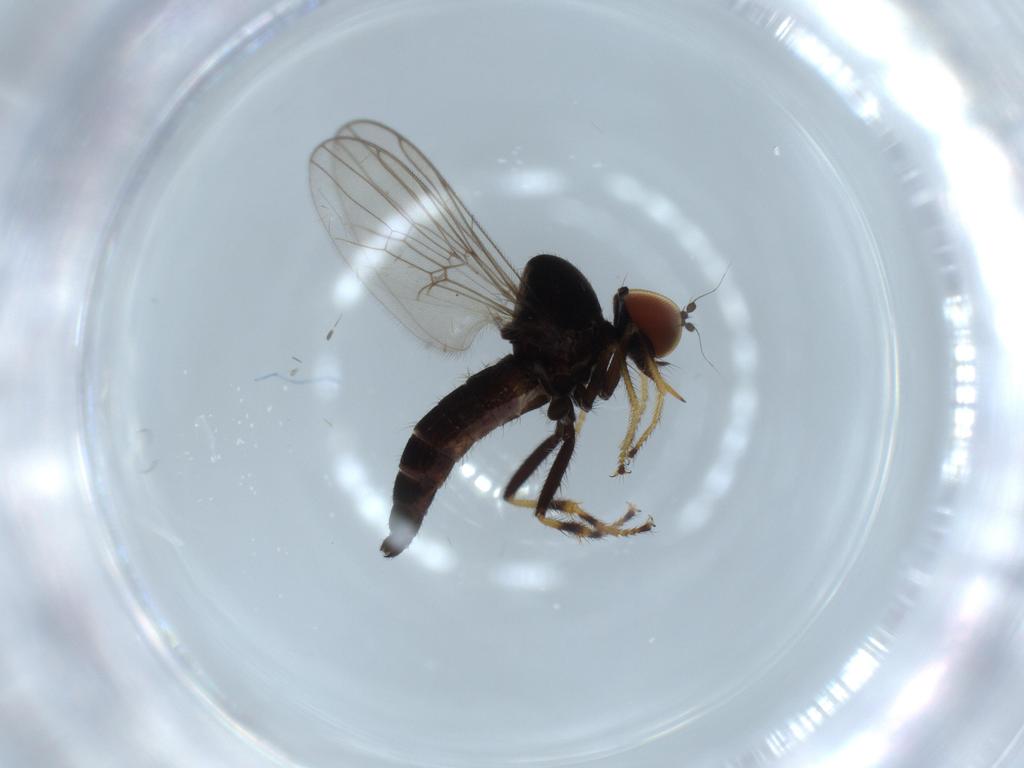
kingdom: Animalia
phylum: Arthropoda
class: Insecta
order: Diptera
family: Hybotidae
